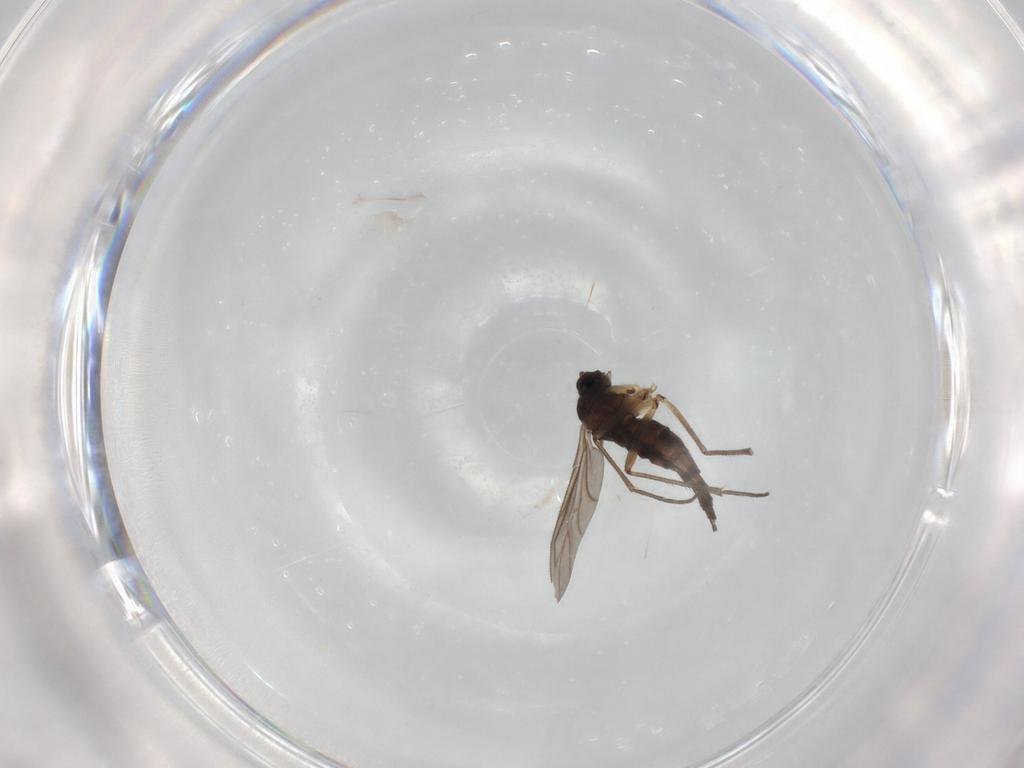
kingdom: Animalia
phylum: Arthropoda
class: Insecta
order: Diptera
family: Sciaridae
